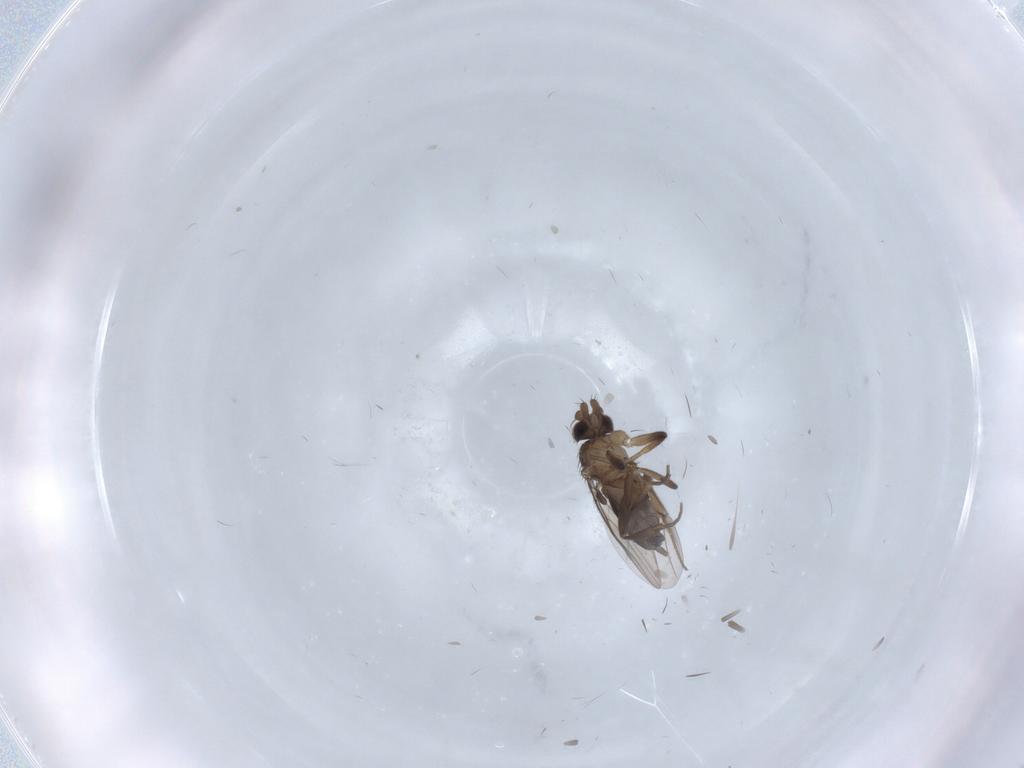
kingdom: Animalia
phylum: Arthropoda
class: Insecta
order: Diptera
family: Phoridae
